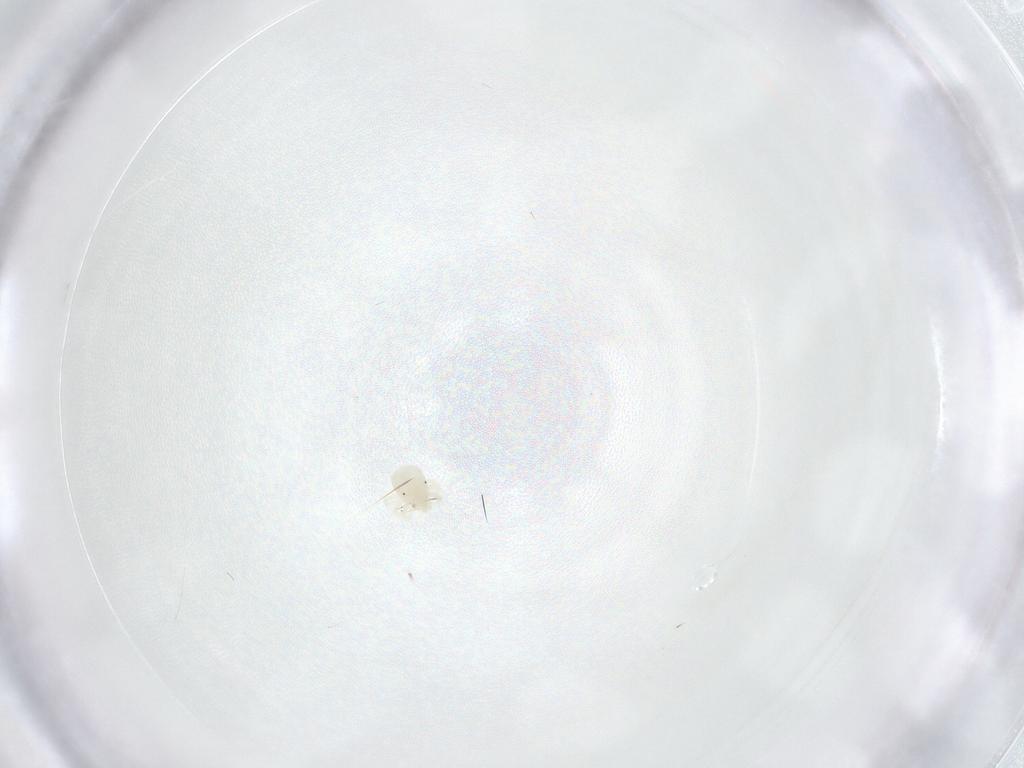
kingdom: Animalia
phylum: Arthropoda
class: Arachnida
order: Trombidiformes
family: Anystidae
